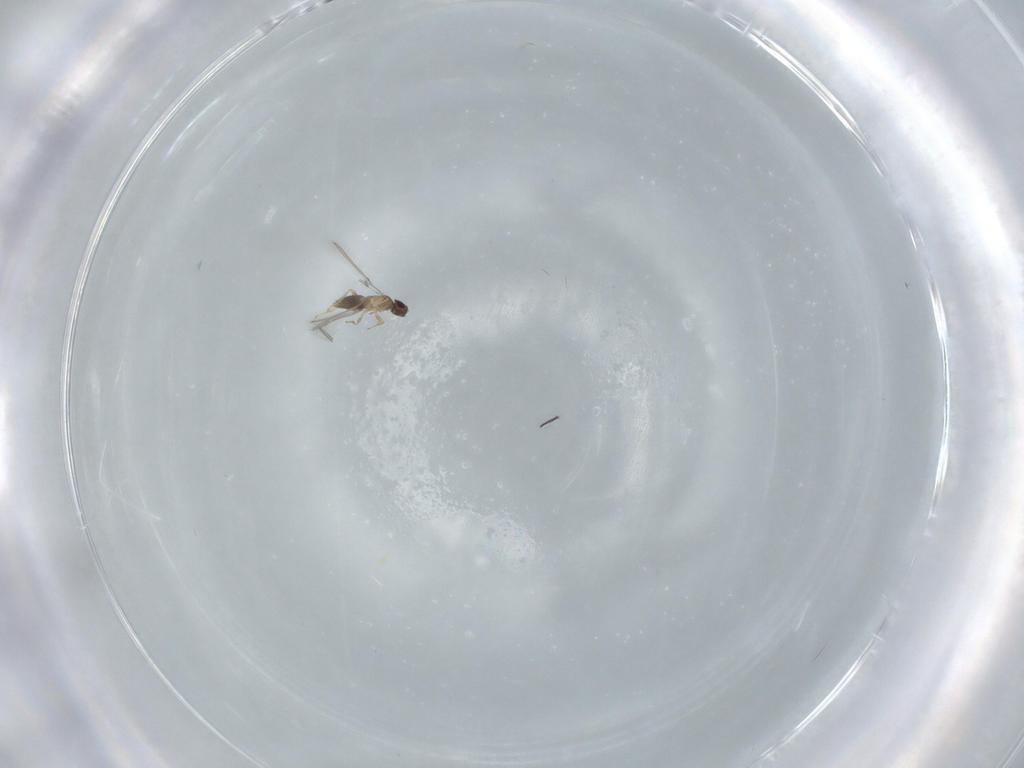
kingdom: Animalia
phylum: Arthropoda
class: Insecta
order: Hymenoptera
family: Mymaridae
